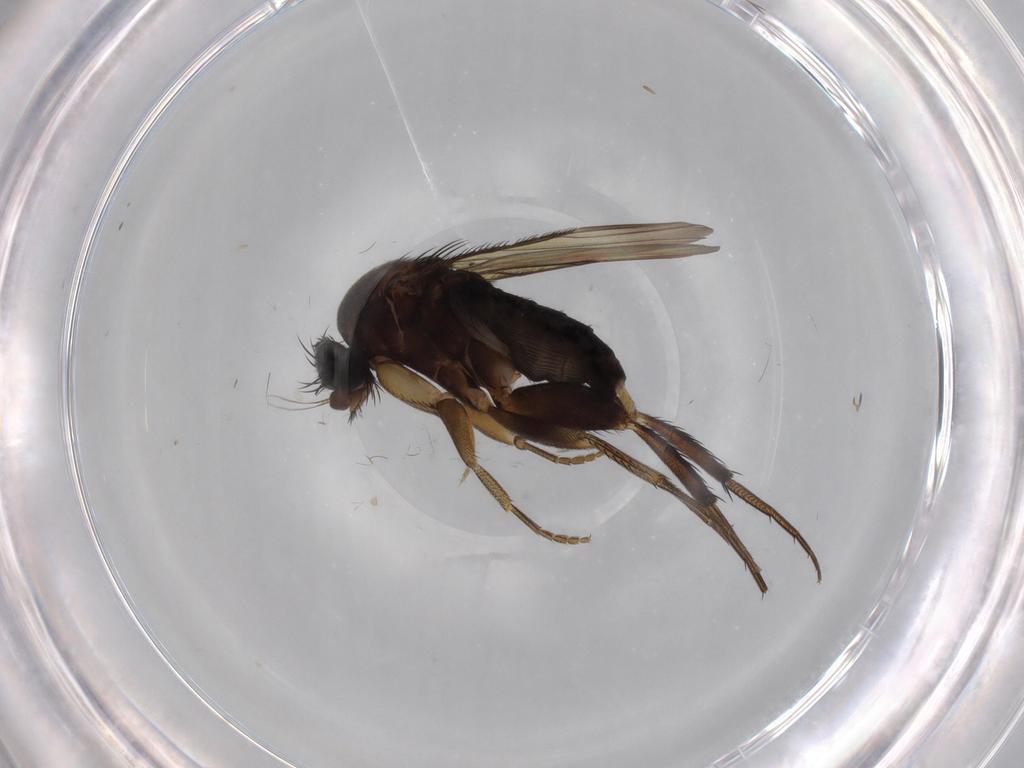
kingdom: Animalia
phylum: Arthropoda
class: Insecta
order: Diptera
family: Phoridae
